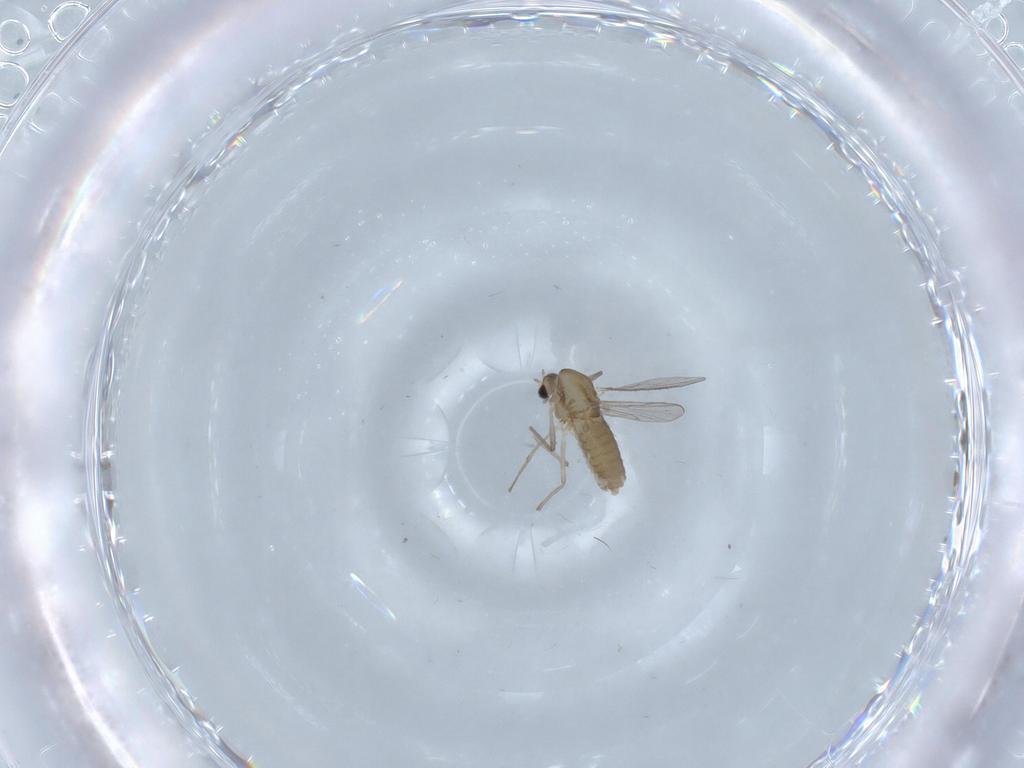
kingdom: Animalia
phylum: Arthropoda
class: Insecta
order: Diptera
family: Chironomidae
